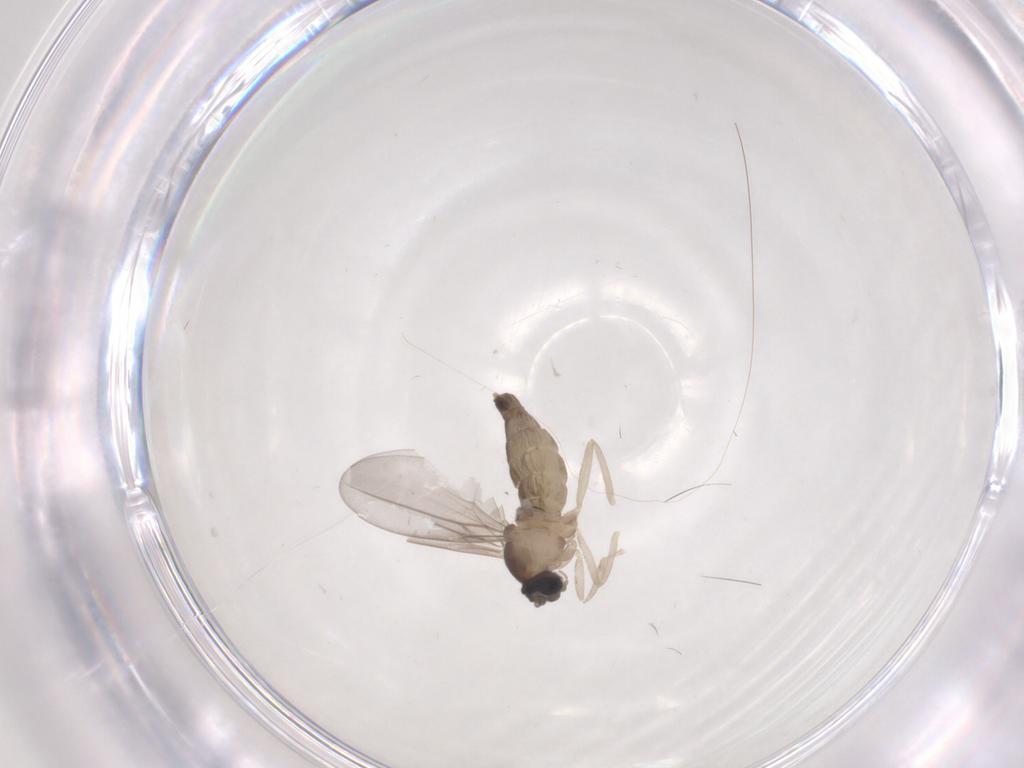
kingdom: Animalia
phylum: Arthropoda
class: Insecta
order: Diptera
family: Cecidomyiidae
